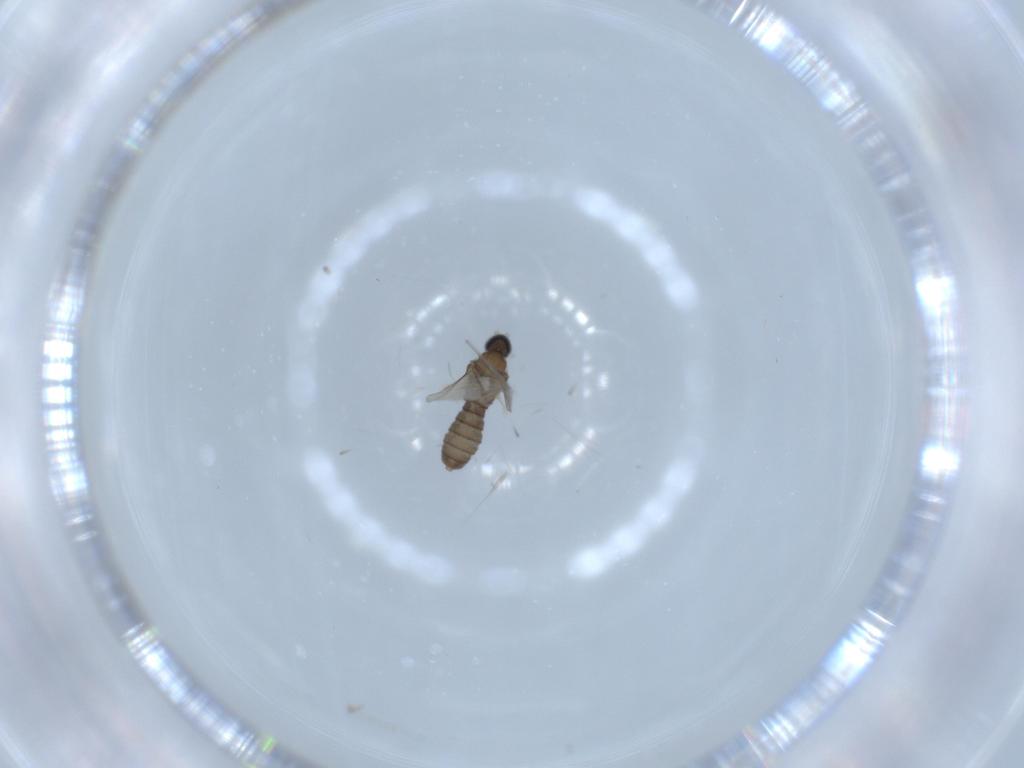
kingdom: Animalia
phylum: Arthropoda
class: Insecta
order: Diptera
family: Cecidomyiidae
